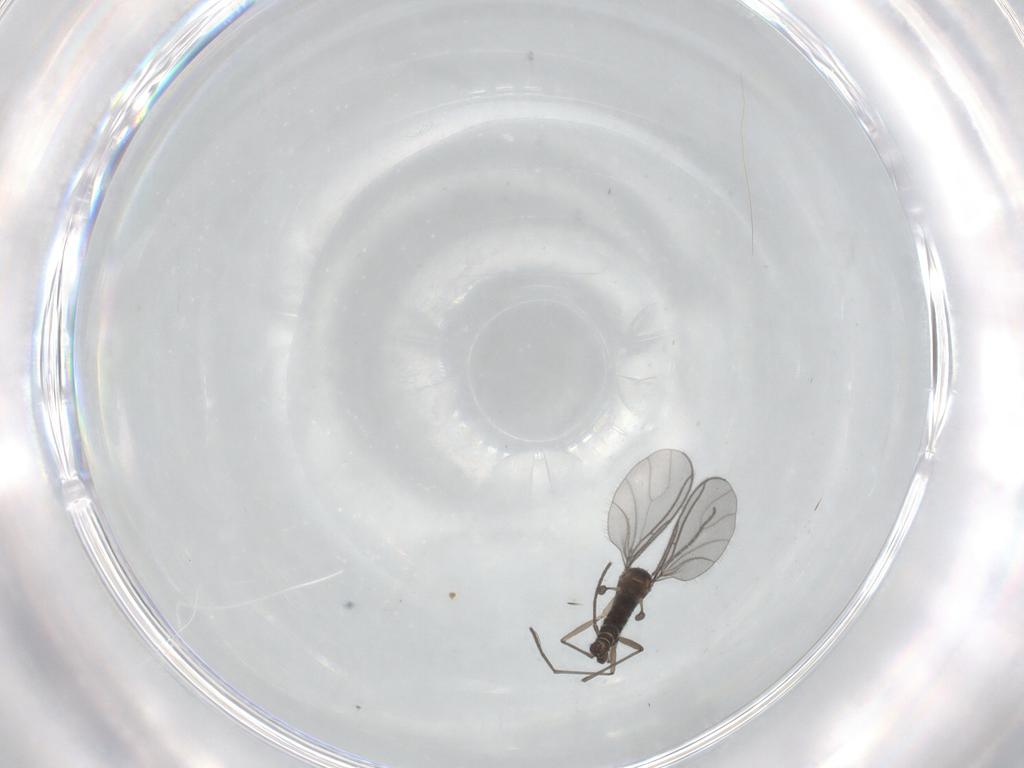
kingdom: Animalia
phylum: Arthropoda
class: Insecta
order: Diptera
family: Sciaridae
